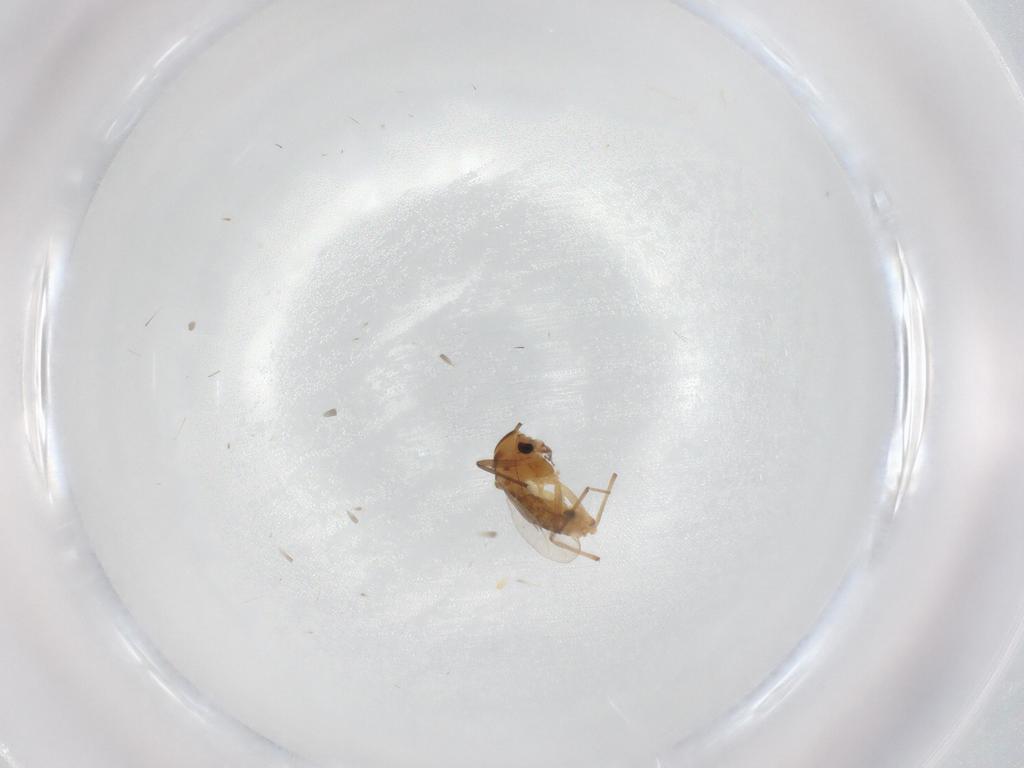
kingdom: Animalia
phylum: Arthropoda
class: Insecta
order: Diptera
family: Chironomidae
